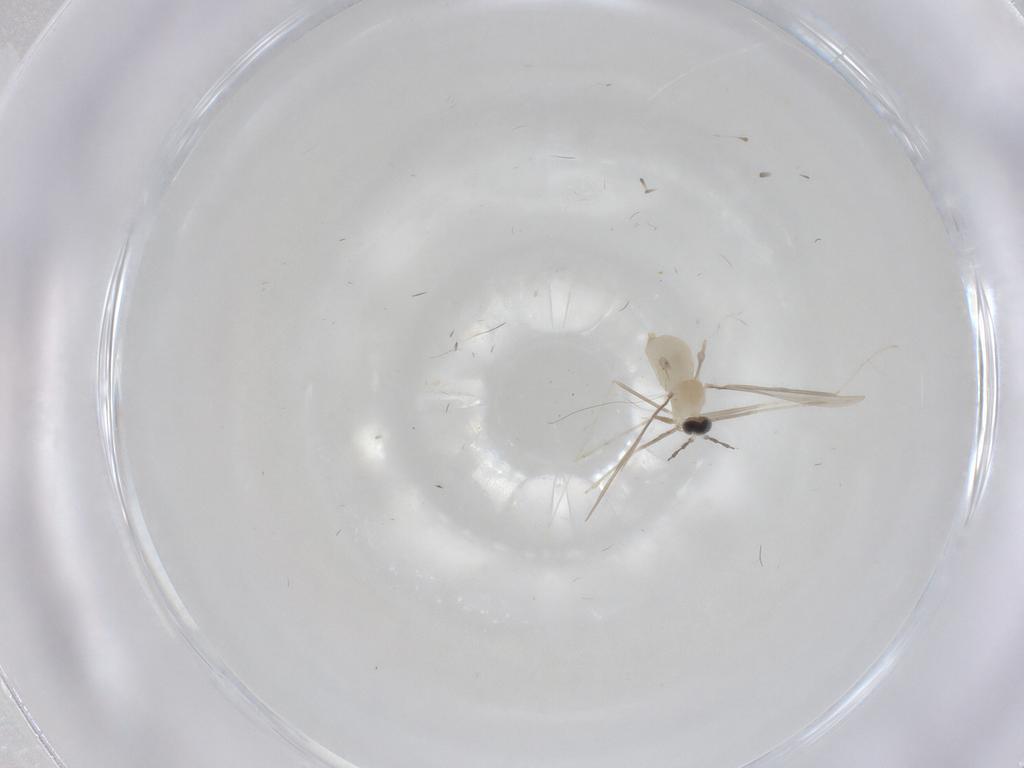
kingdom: Animalia
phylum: Arthropoda
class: Insecta
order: Diptera
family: Cecidomyiidae
